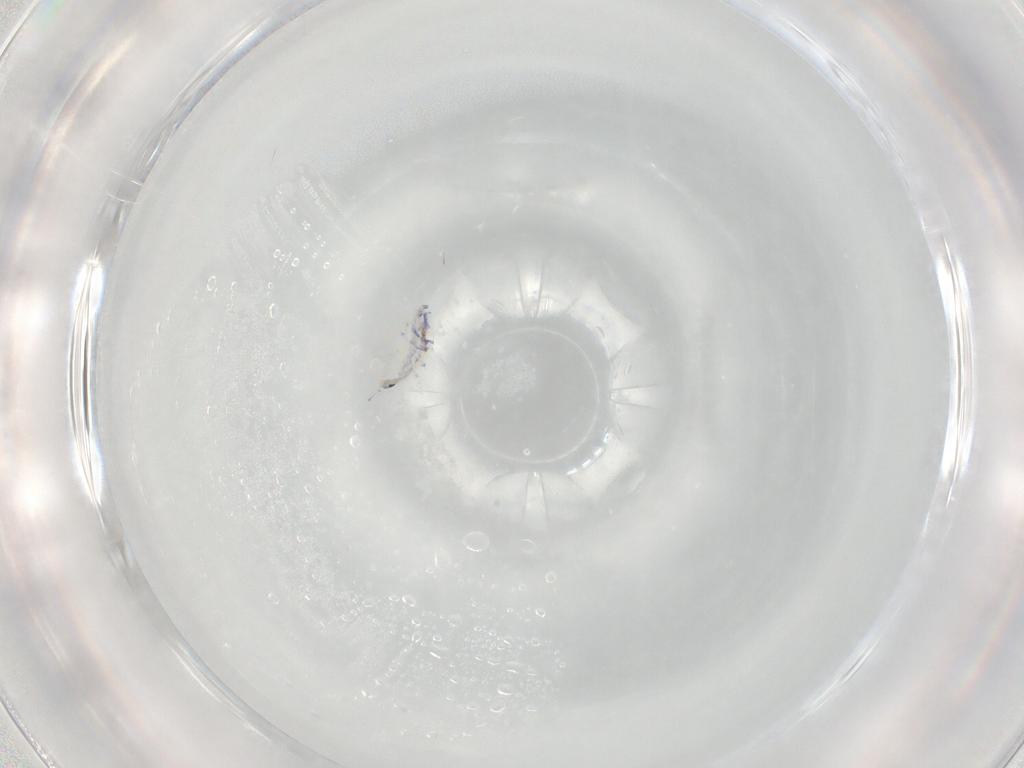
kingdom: Animalia
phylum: Arthropoda
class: Collembola
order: Entomobryomorpha
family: Entomobryidae
